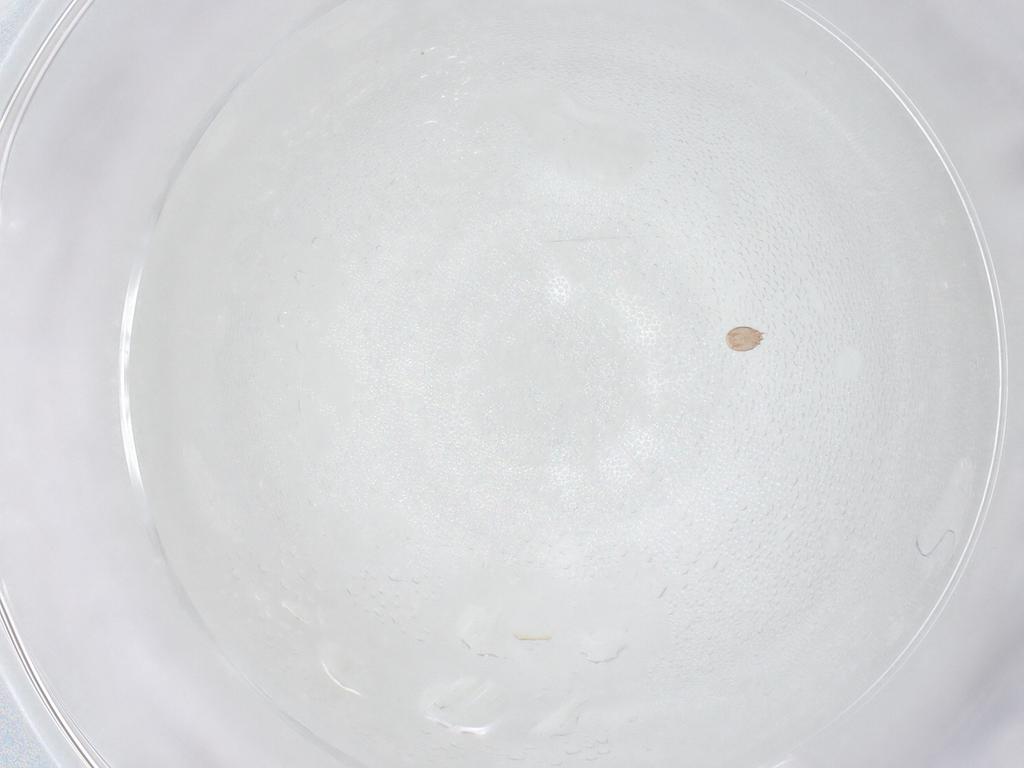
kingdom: Animalia
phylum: Arthropoda
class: Insecta
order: Diptera
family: Sciaridae
